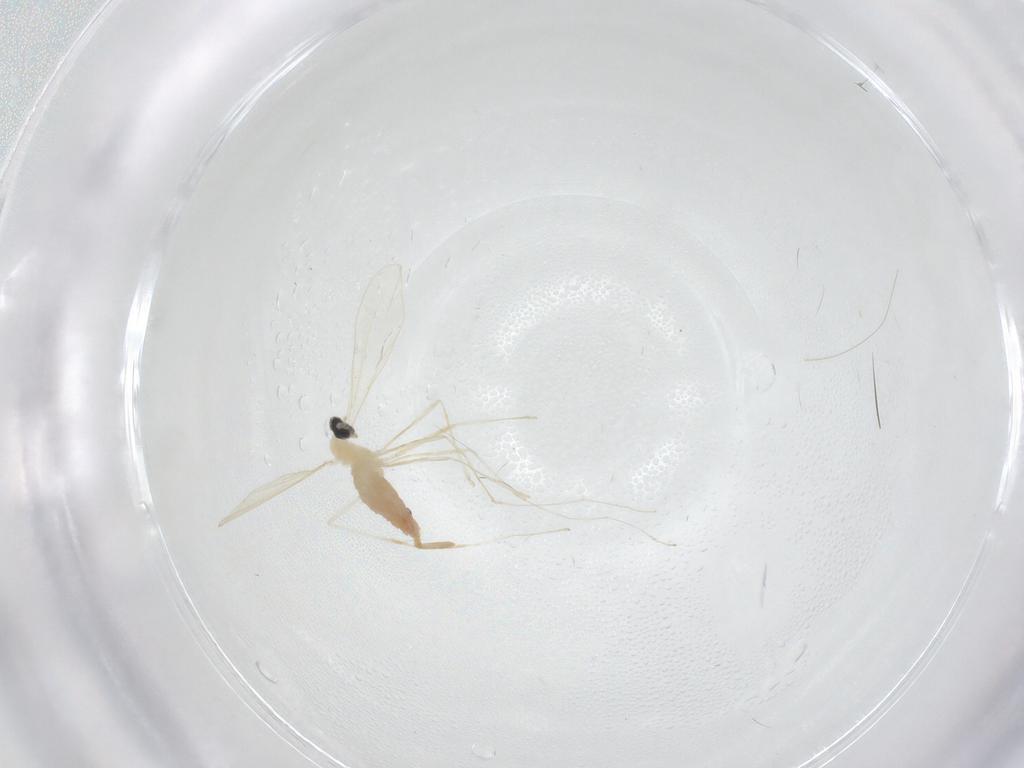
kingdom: Animalia
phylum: Arthropoda
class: Insecta
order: Diptera
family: Cecidomyiidae
